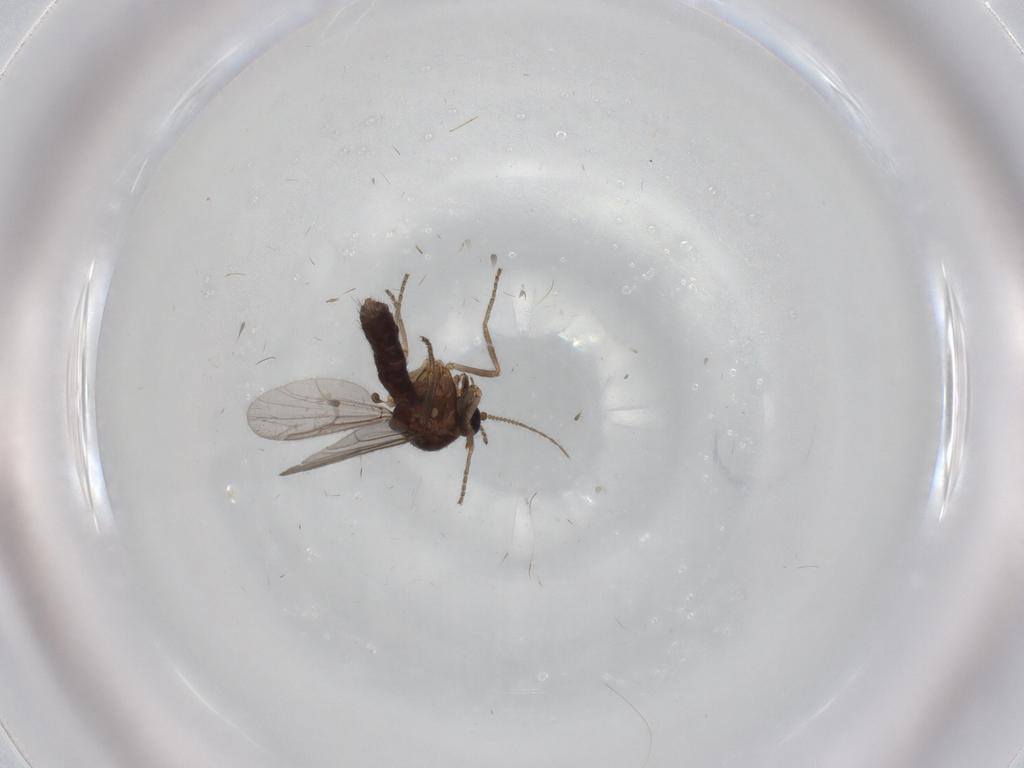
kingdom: Animalia
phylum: Arthropoda
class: Insecta
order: Diptera
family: Ceratopogonidae
